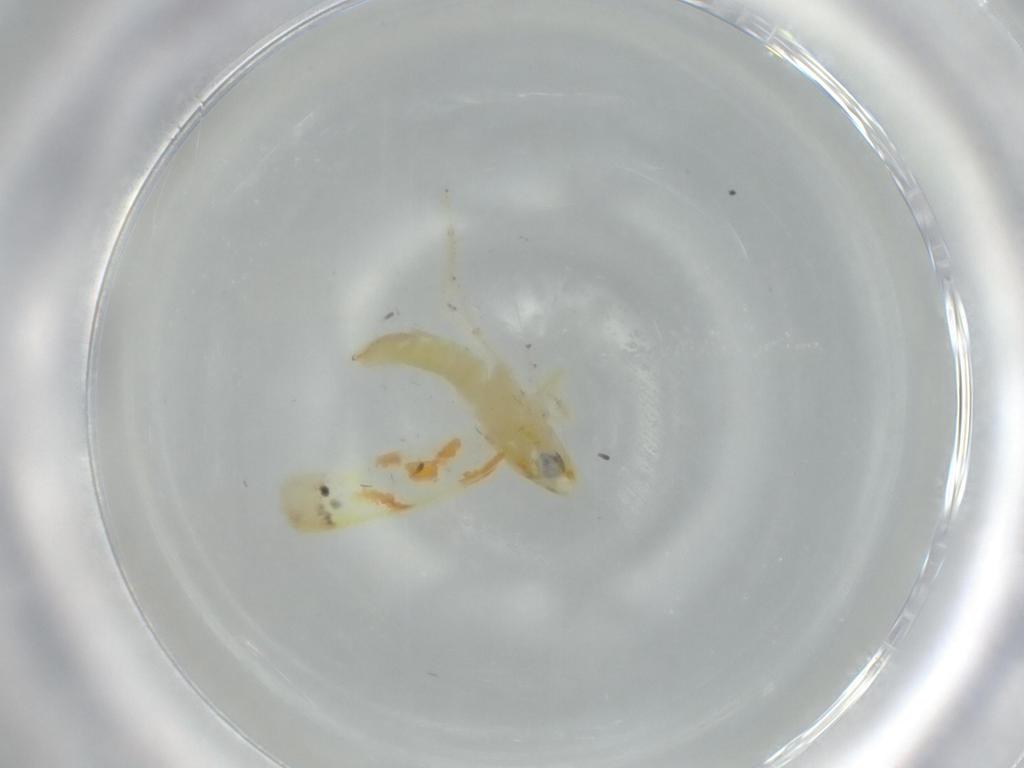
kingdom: Animalia
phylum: Arthropoda
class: Insecta
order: Hemiptera
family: Cicadellidae
